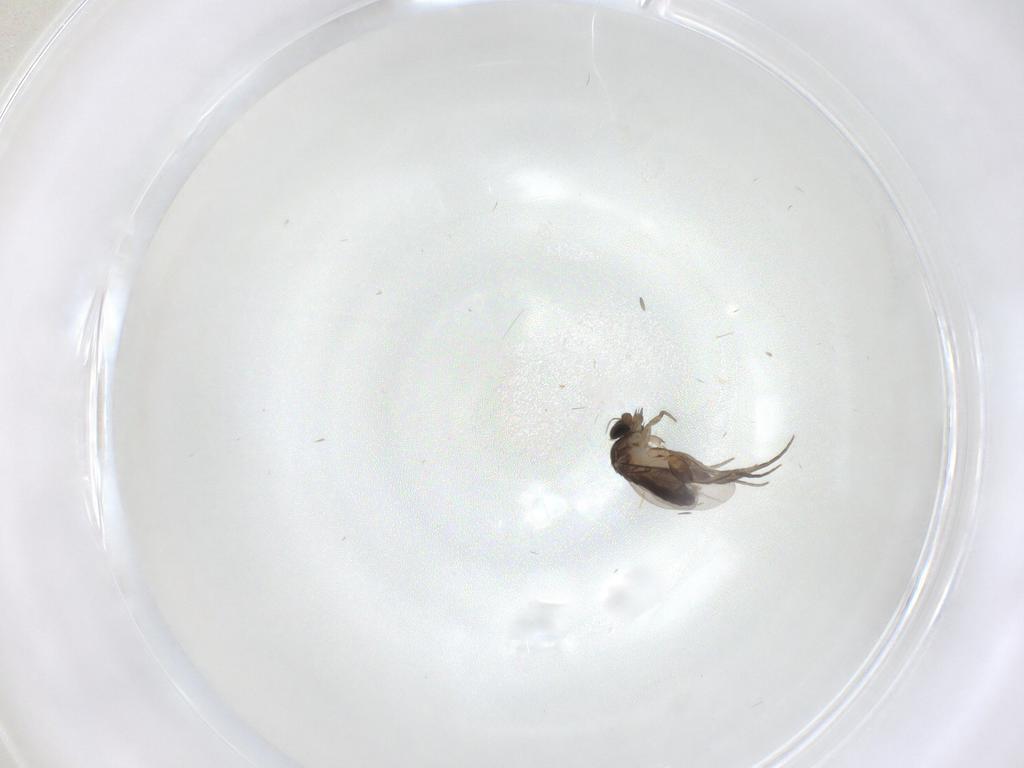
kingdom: Animalia
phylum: Arthropoda
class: Insecta
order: Diptera
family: Phoridae
